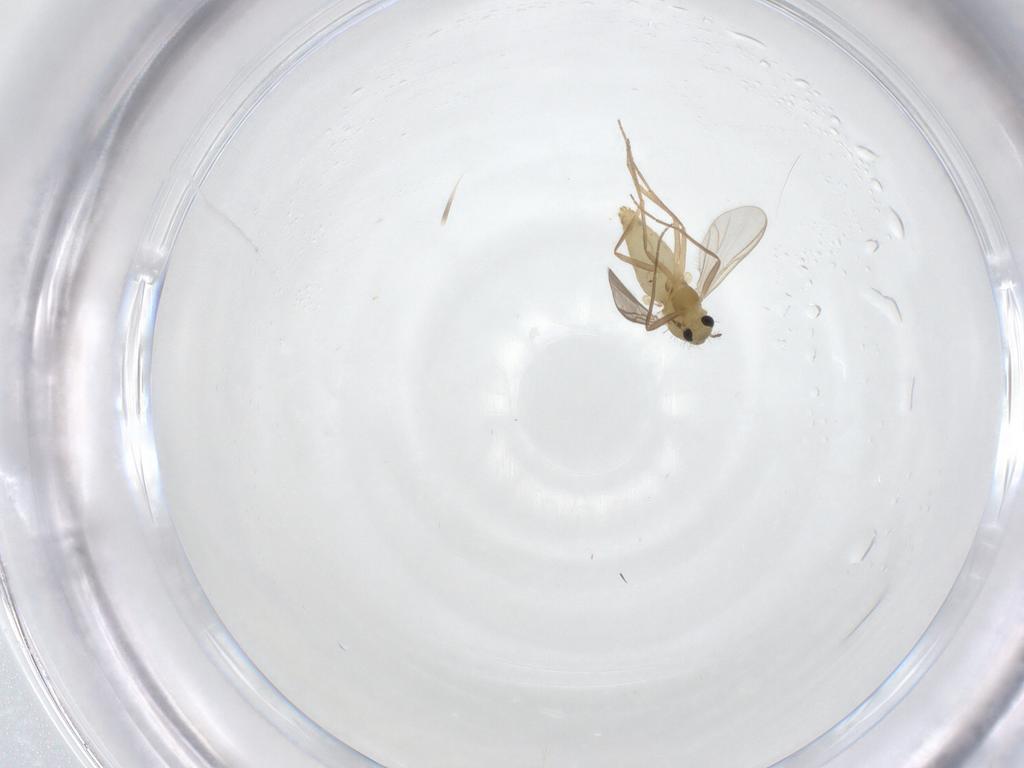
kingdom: Animalia
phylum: Arthropoda
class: Insecta
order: Diptera
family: Chironomidae
